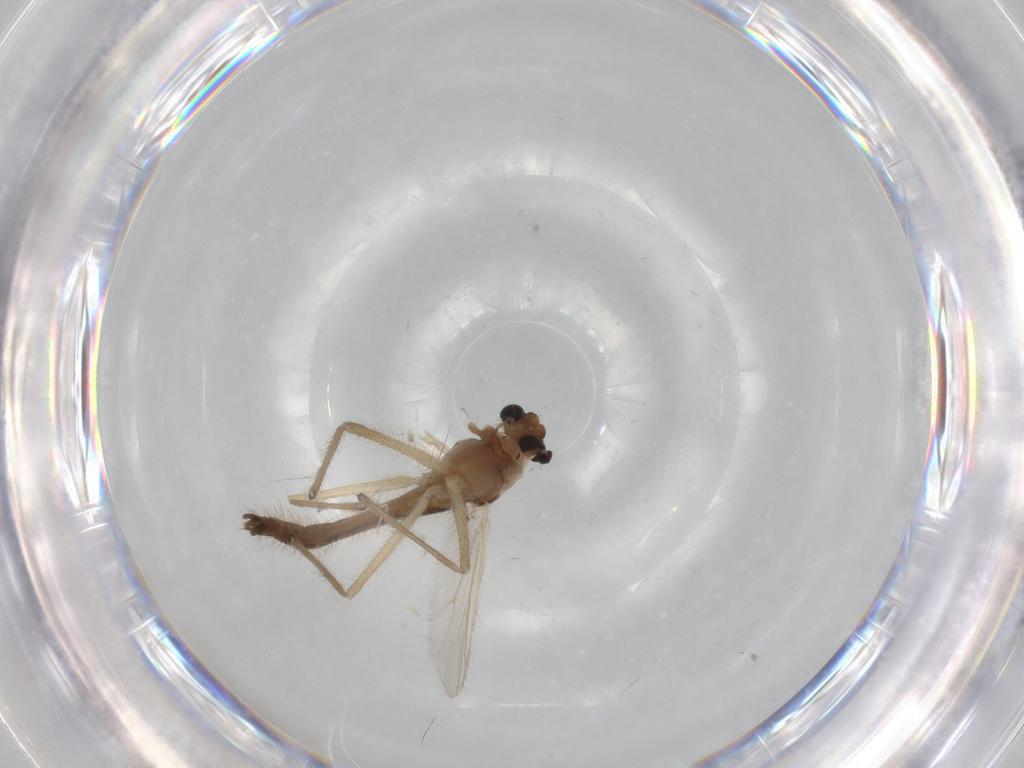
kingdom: Animalia
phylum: Arthropoda
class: Insecta
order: Diptera
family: Chironomidae
